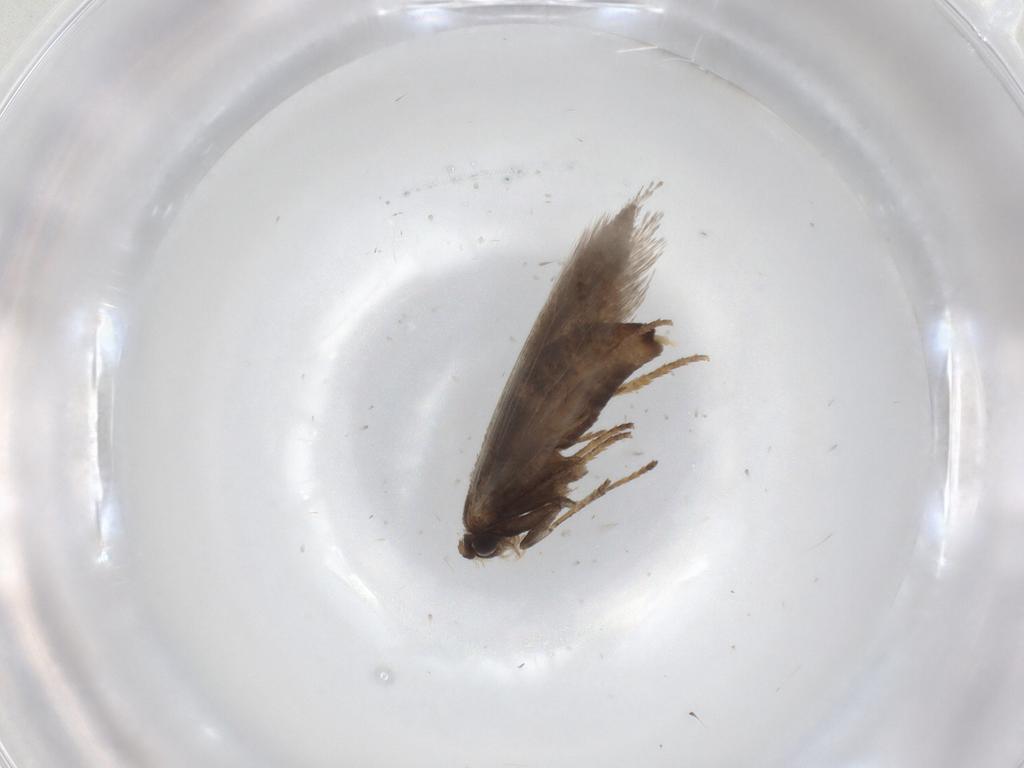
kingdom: Animalia
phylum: Arthropoda
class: Insecta
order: Lepidoptera
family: Nepticulidae
